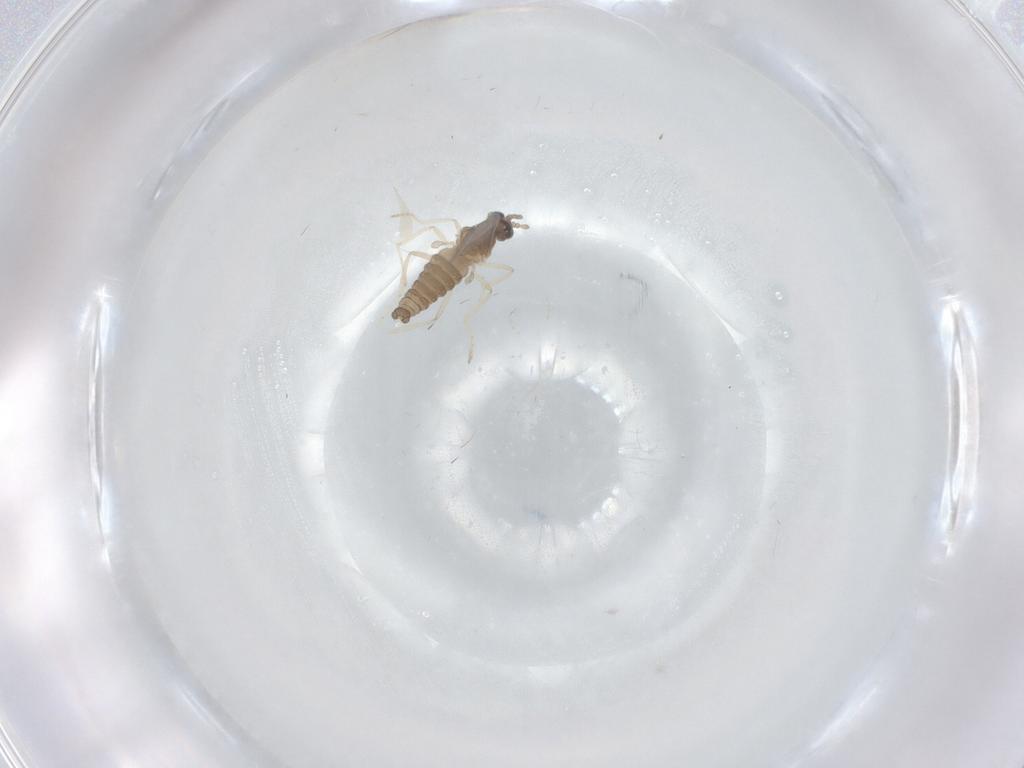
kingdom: Animalia
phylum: Arthropoda
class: Insecta
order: Diptera
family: Cecidomyiidae
